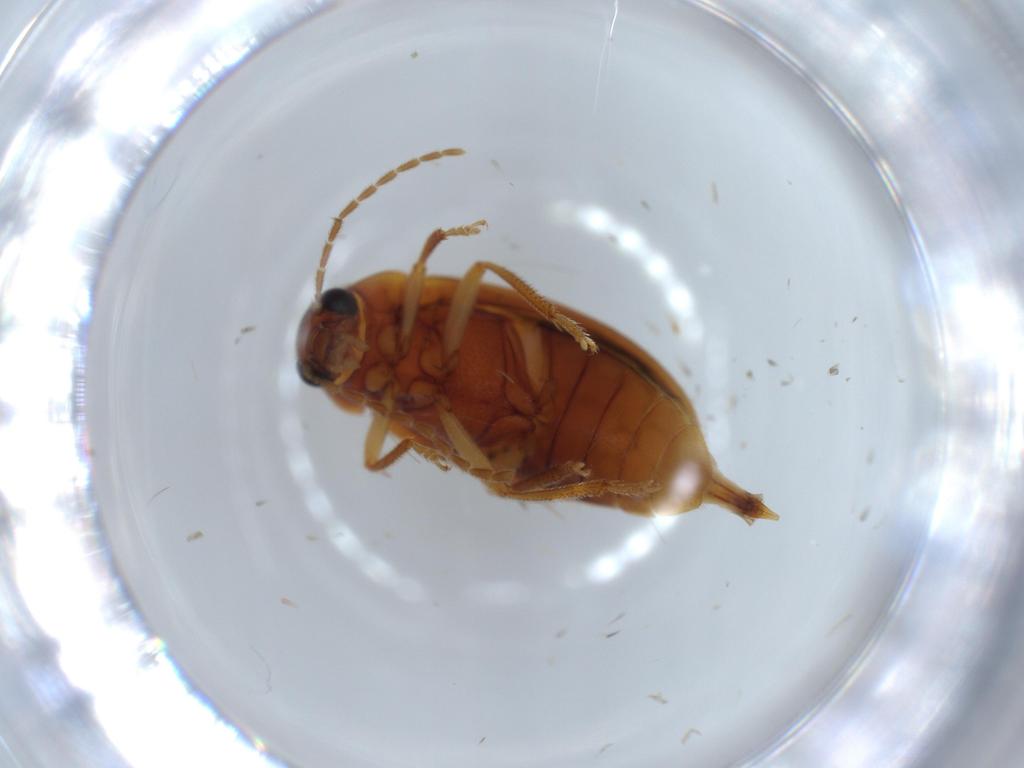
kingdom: Animalia
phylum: Arthropoda
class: Insecta
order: Coleoptera
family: Ptilodactylidae
